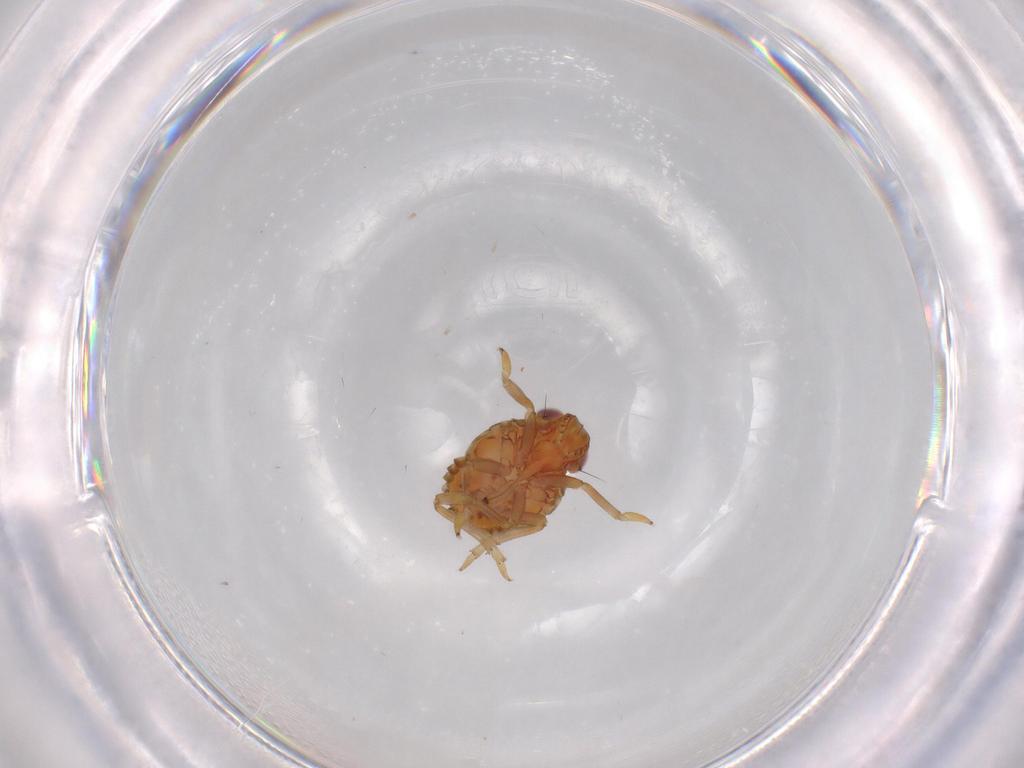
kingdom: Animalia
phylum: Arthropoda
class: Insecta
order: Hemiptera
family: Issidae
